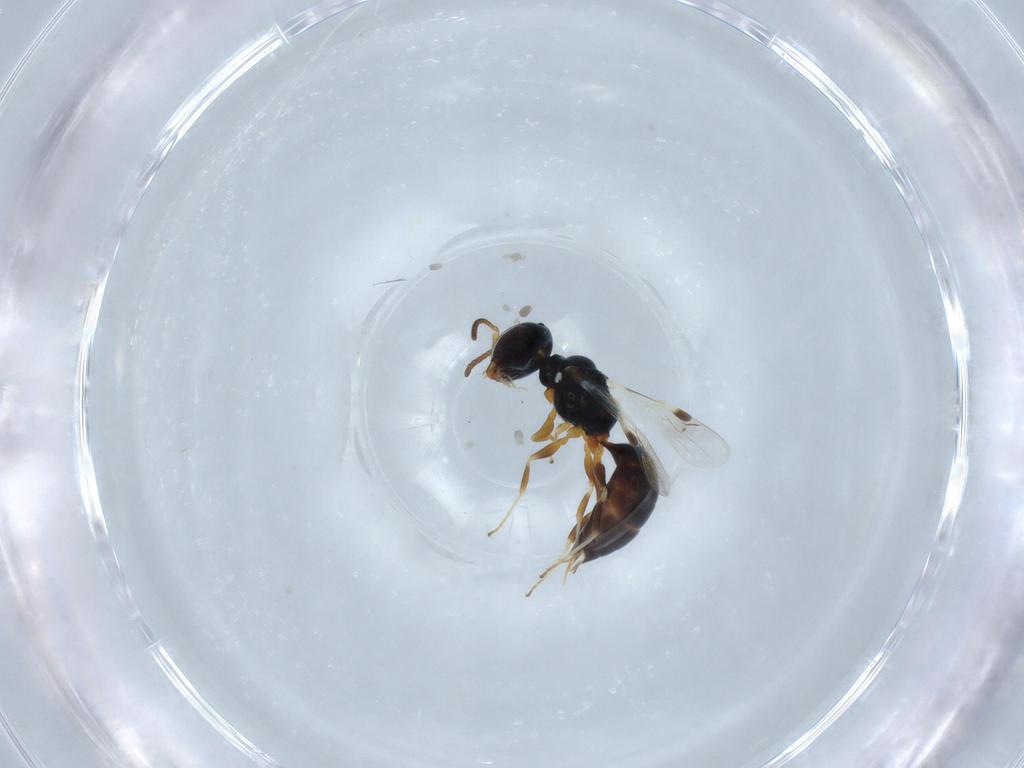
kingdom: Animalia
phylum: Arthropoda
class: Insecta
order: Hymenoptera
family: Pemphredonidae
